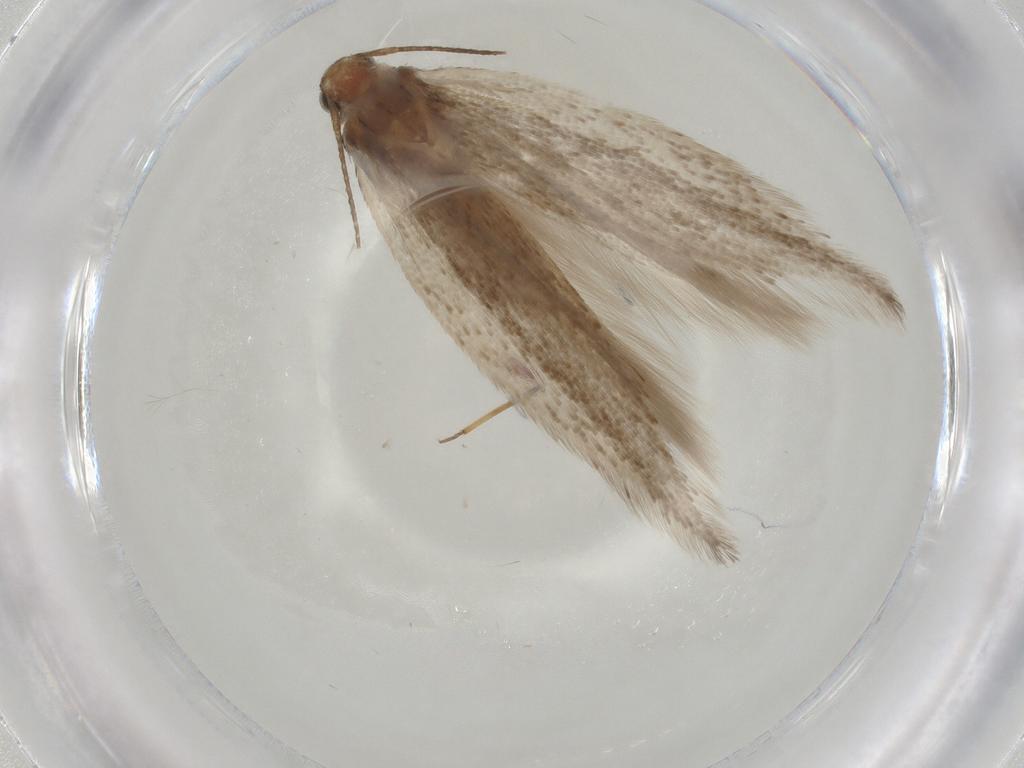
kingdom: Animalia
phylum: Arthropoda
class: Insecta
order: Lepidoptera
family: Gelechiidae
